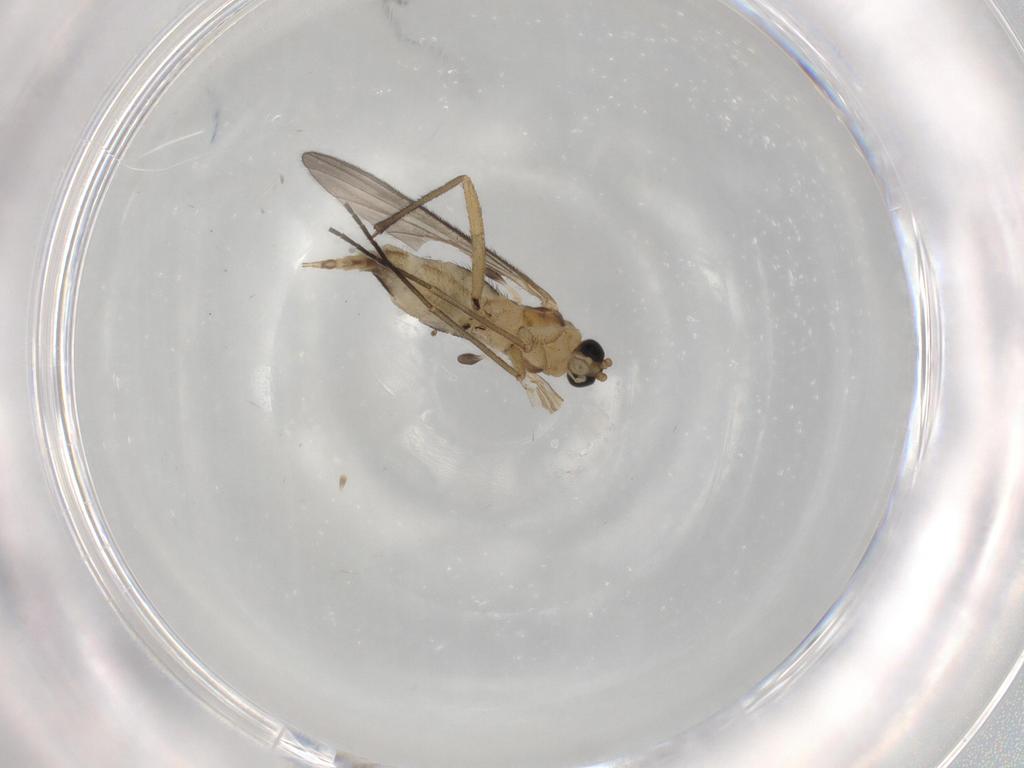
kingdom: Animalia
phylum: Arthropoda
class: Insecta
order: Diptera
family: Sciaridae
